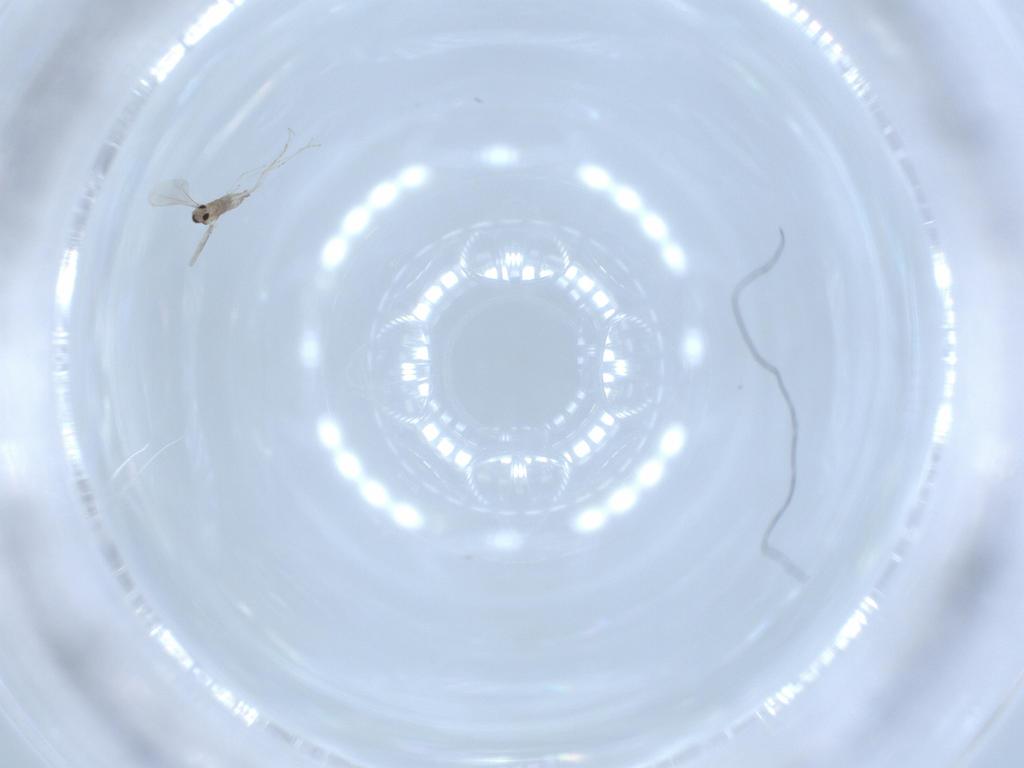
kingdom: Animalia
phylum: Arthropoda
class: Insecta
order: Diptera
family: Cecidomyiidae
